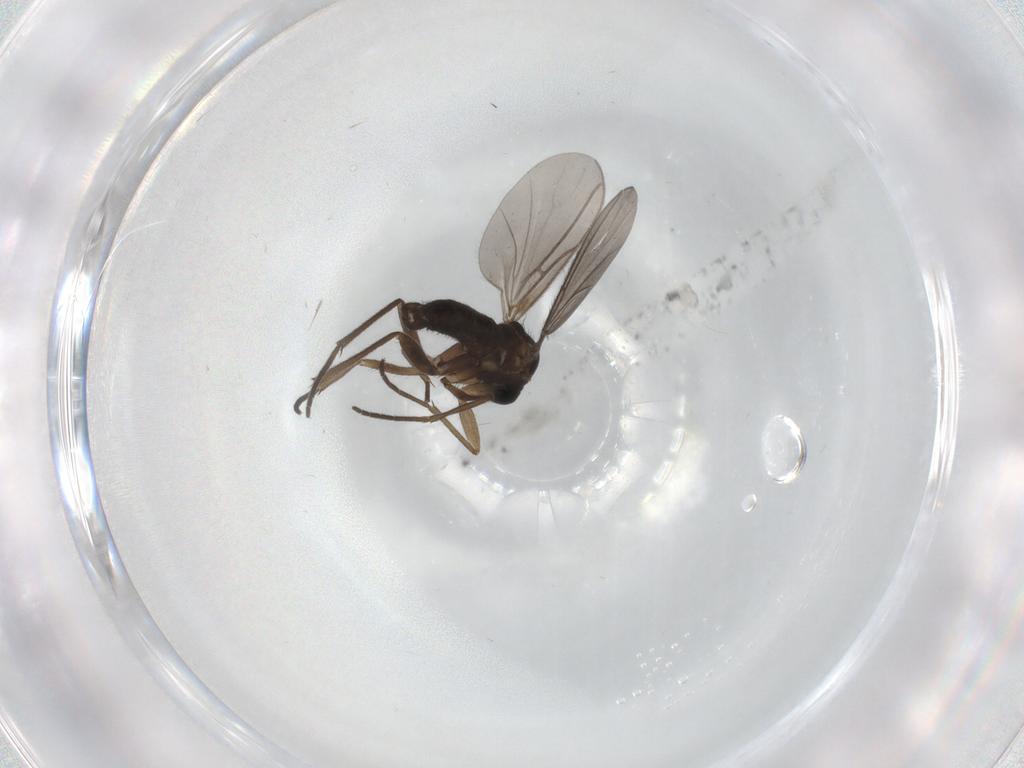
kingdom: Animalia
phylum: Arthropoda
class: Insecta
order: Diptera
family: Sciaridae
